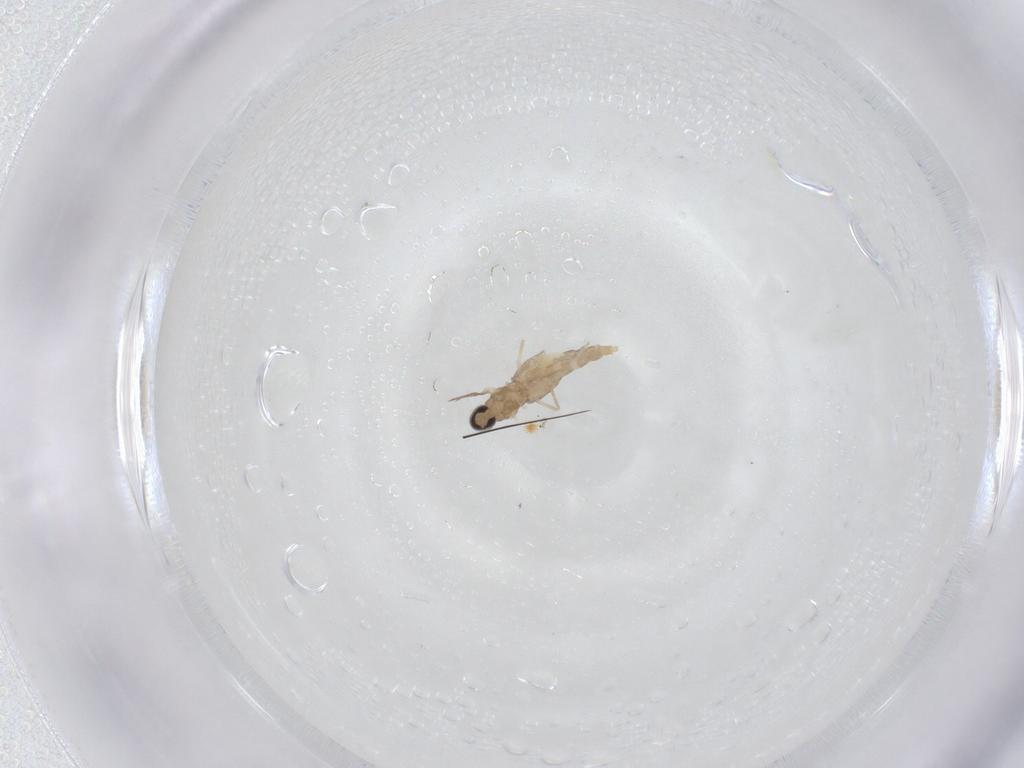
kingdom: Animalia
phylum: Arthropoda
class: Insecta
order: Diptera
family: Cecidomyiidae
